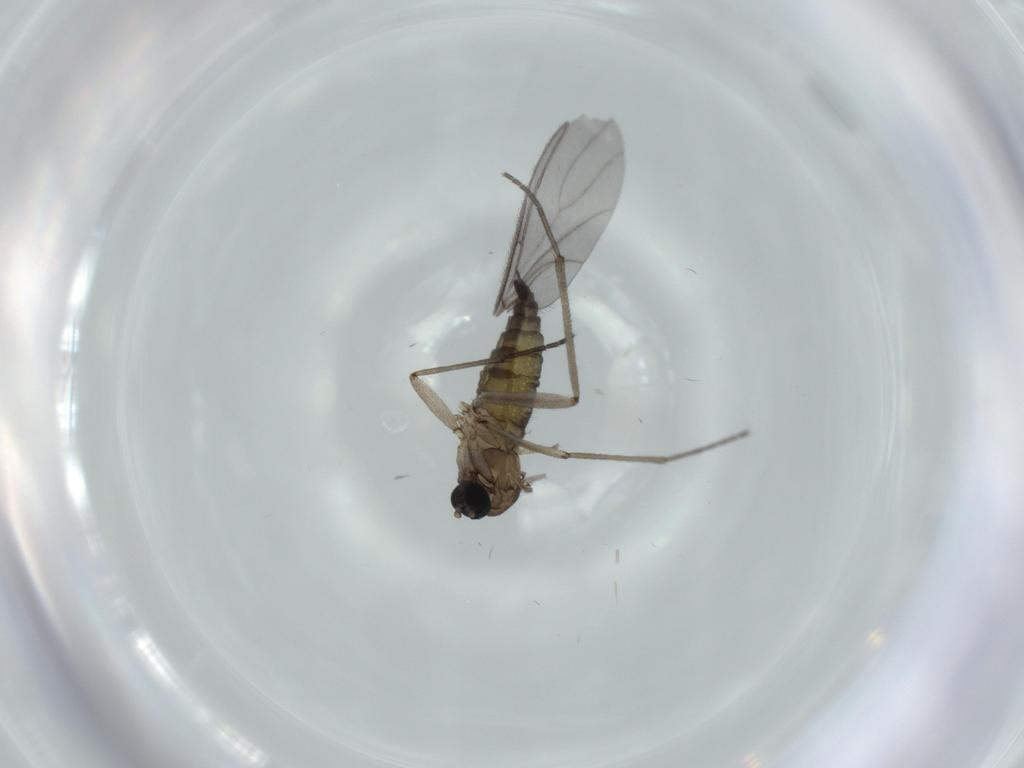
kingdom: Animalia
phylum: Arthropoda
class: Insecta
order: Diptera
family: Sciaridae
